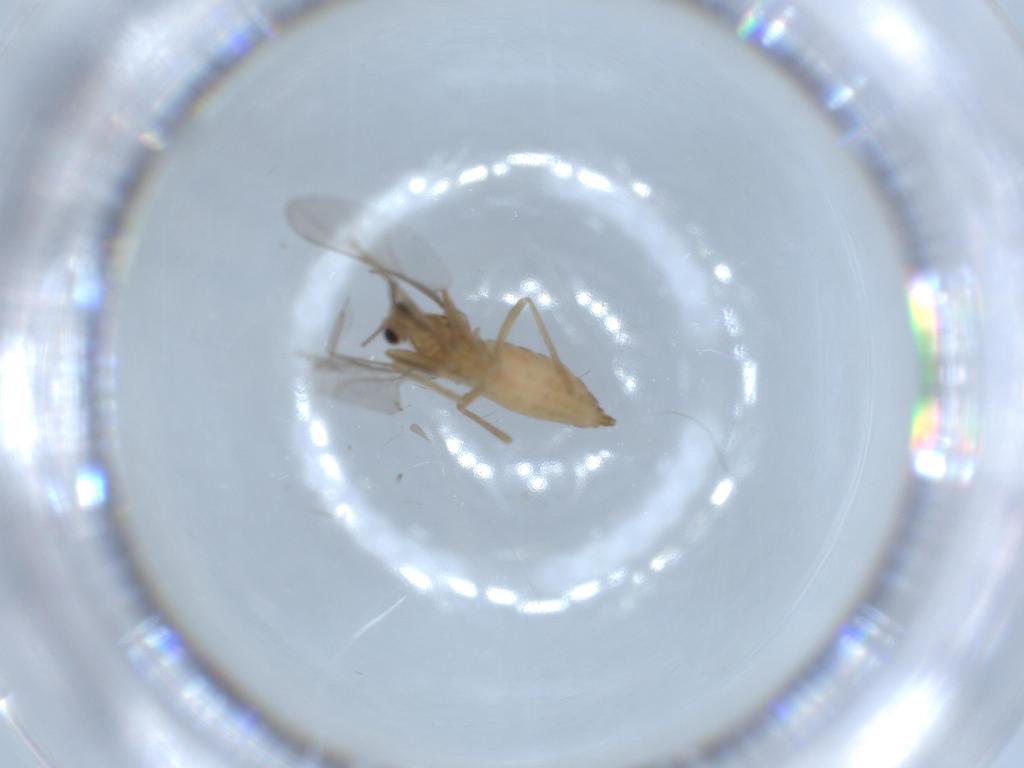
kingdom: Animalia
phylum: Arthropoda
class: Insecta
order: Diptera
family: Cecidomyiidae
